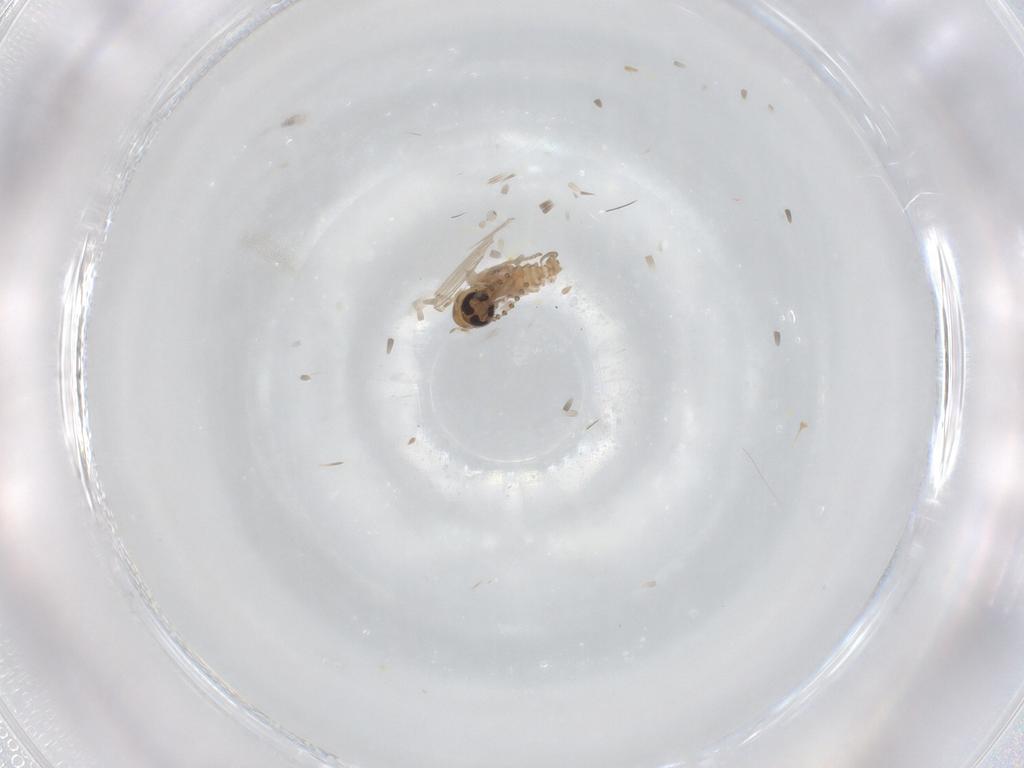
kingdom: Animalia
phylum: Arthropoda
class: Insecta
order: Diptera
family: Psychodidae
